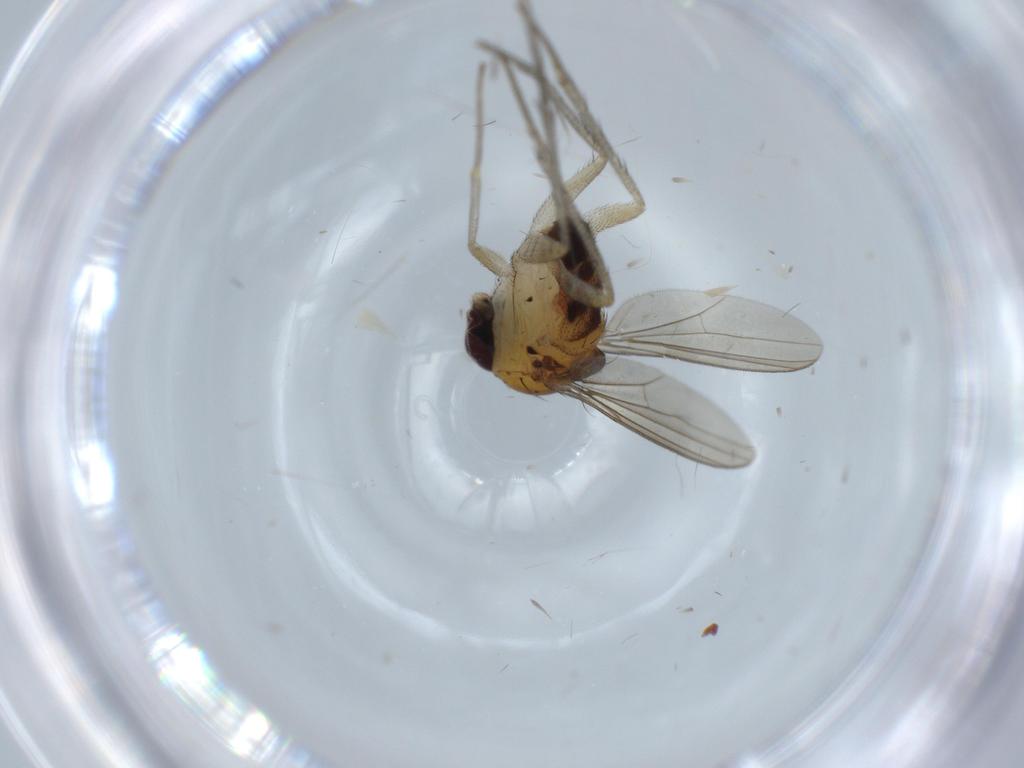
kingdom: Animalia
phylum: Arthropoda
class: Insecta
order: Diptera
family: Dolichopodidae
